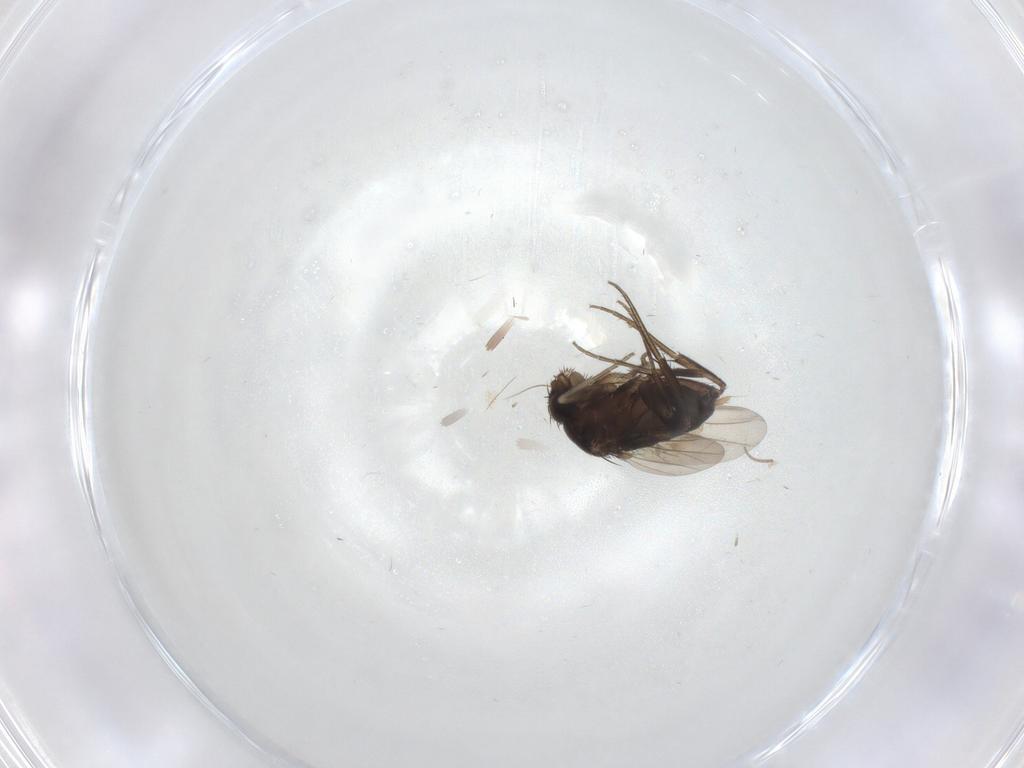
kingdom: Animalia
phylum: Arthropoda
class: Insecta
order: Diptera
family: Phoridae
